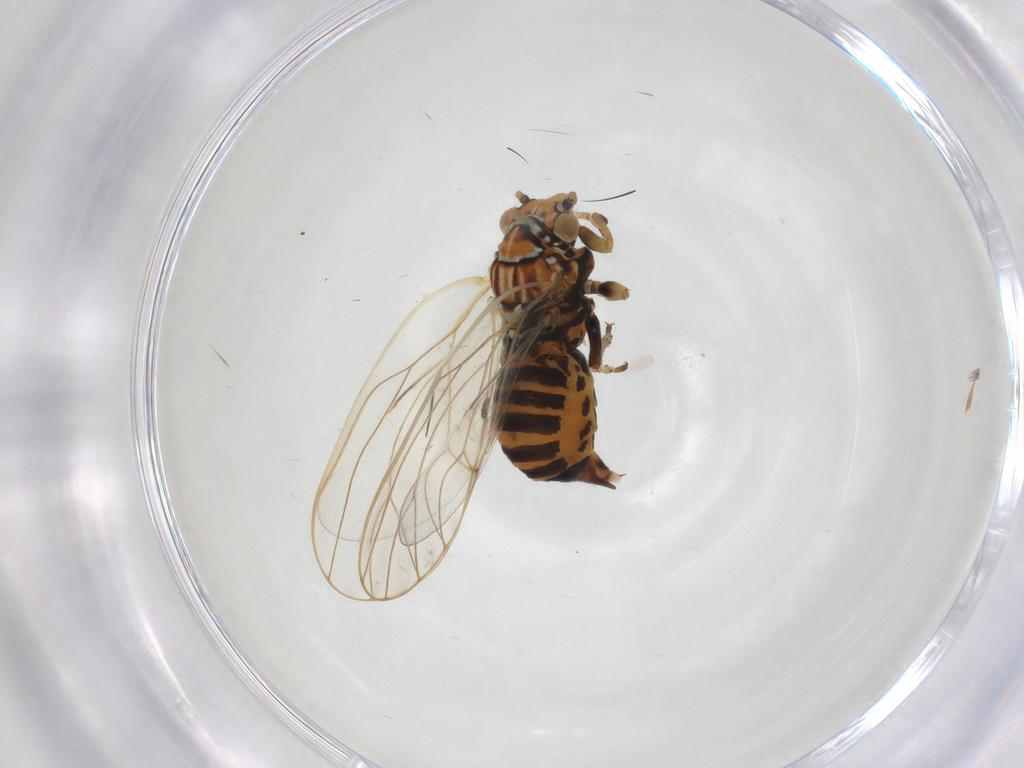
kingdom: Animalia
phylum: Arthropoda
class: Insecta
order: Hemiptera
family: Psyllidae
